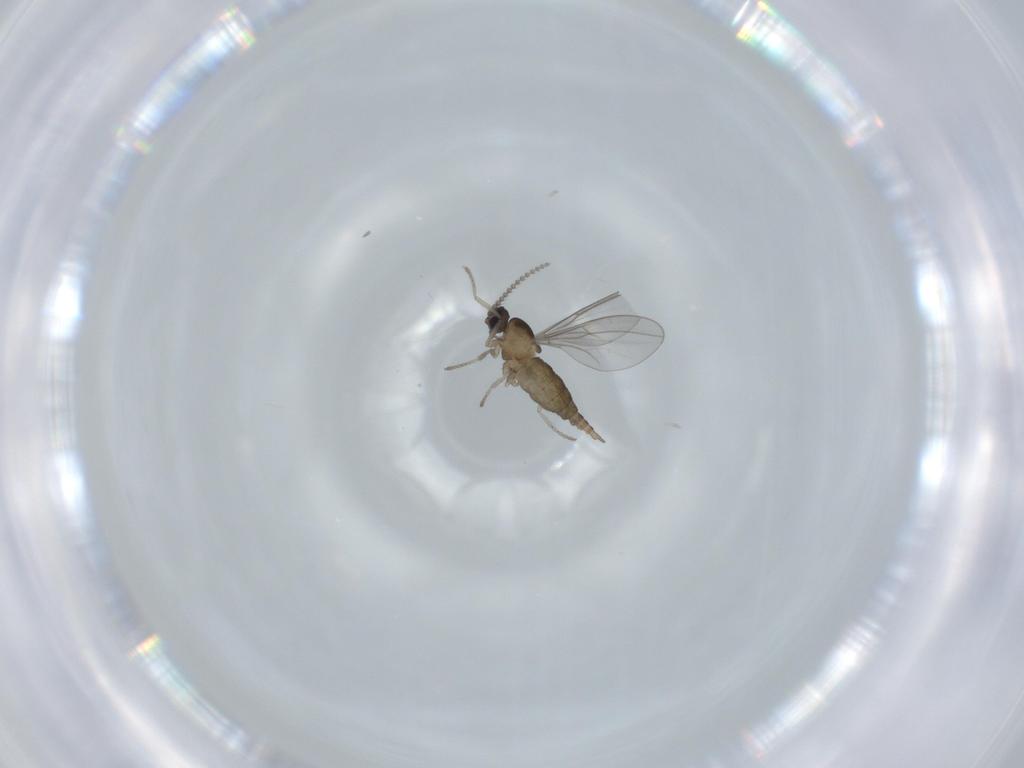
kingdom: Animalia
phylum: Arthropoda
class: Insecta
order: Diptera
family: Cecidomyiidae
